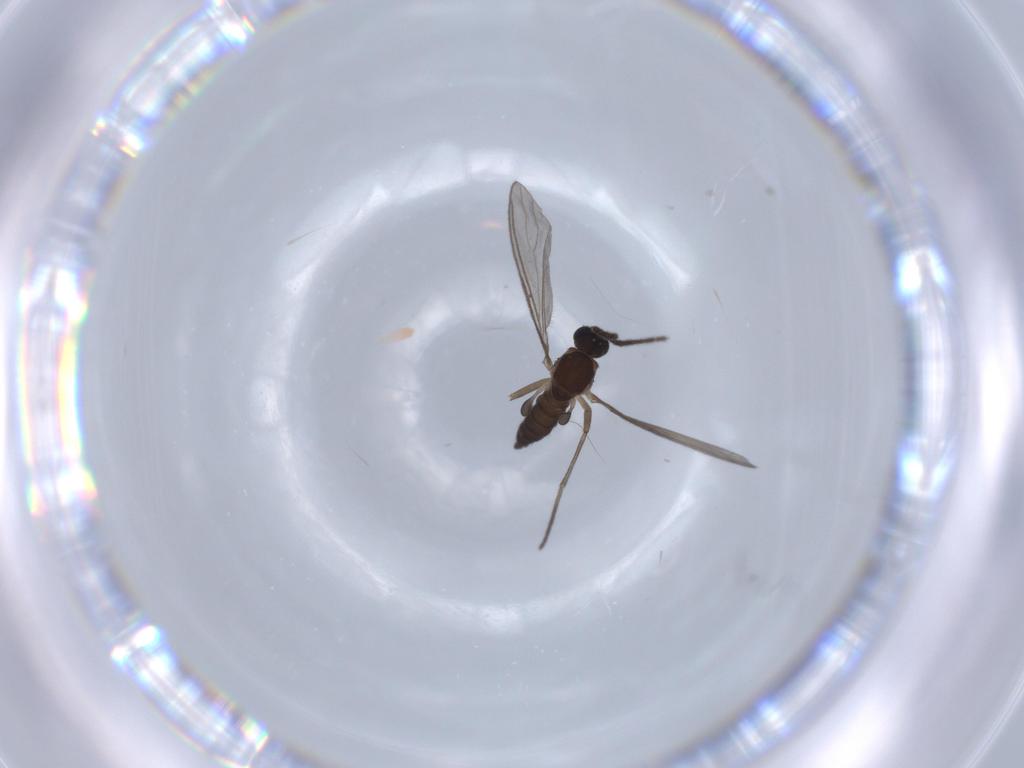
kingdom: Animalia
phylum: Arthropoda
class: Insecta
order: Diptera
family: Sciaridae
